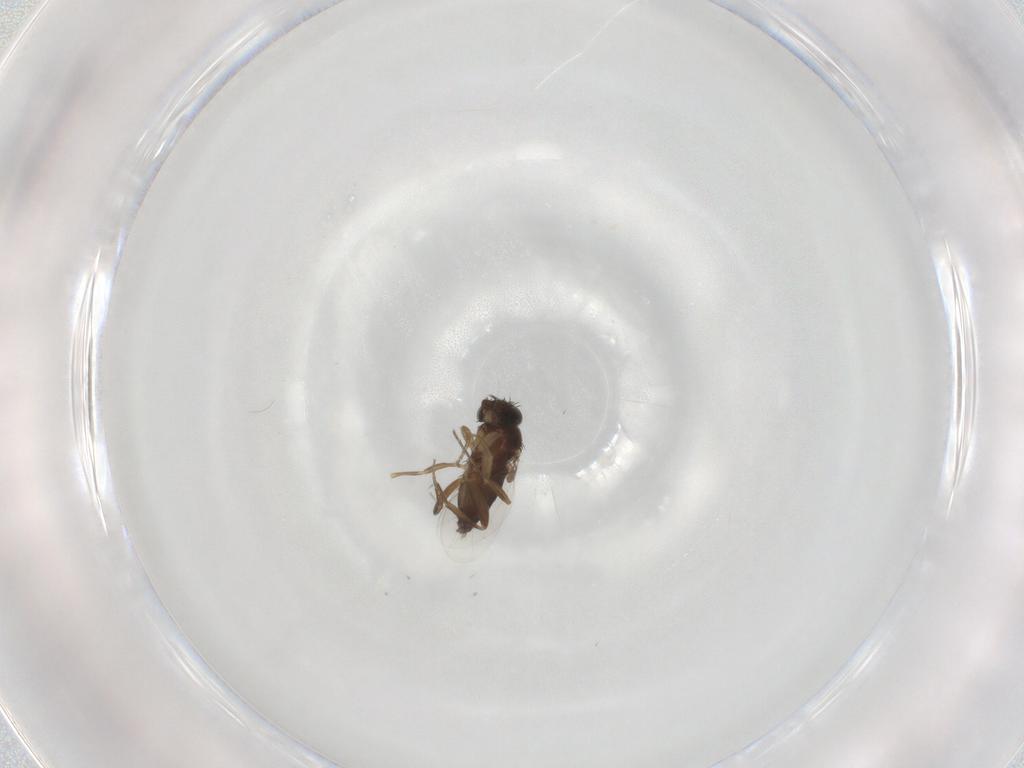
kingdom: Animalia
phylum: Arthropoda
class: Insecta
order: Diptera
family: Phoridae
